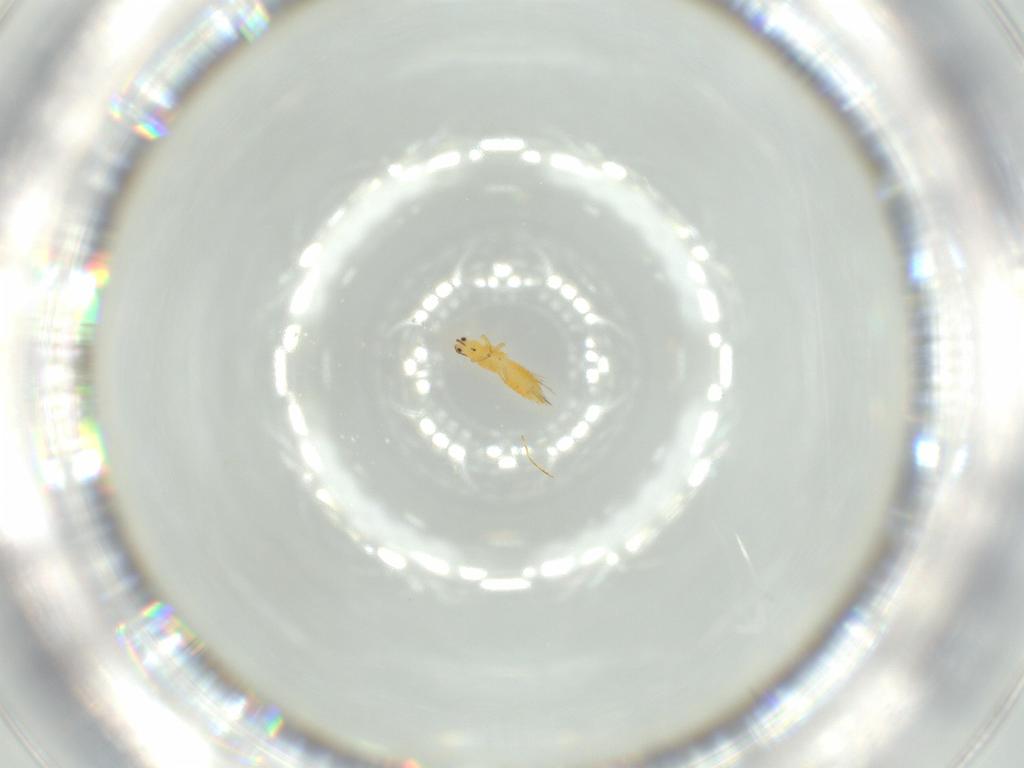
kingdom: Animalia
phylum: Arthropoda
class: Insecta
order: Thysanoptera
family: Thripidae
